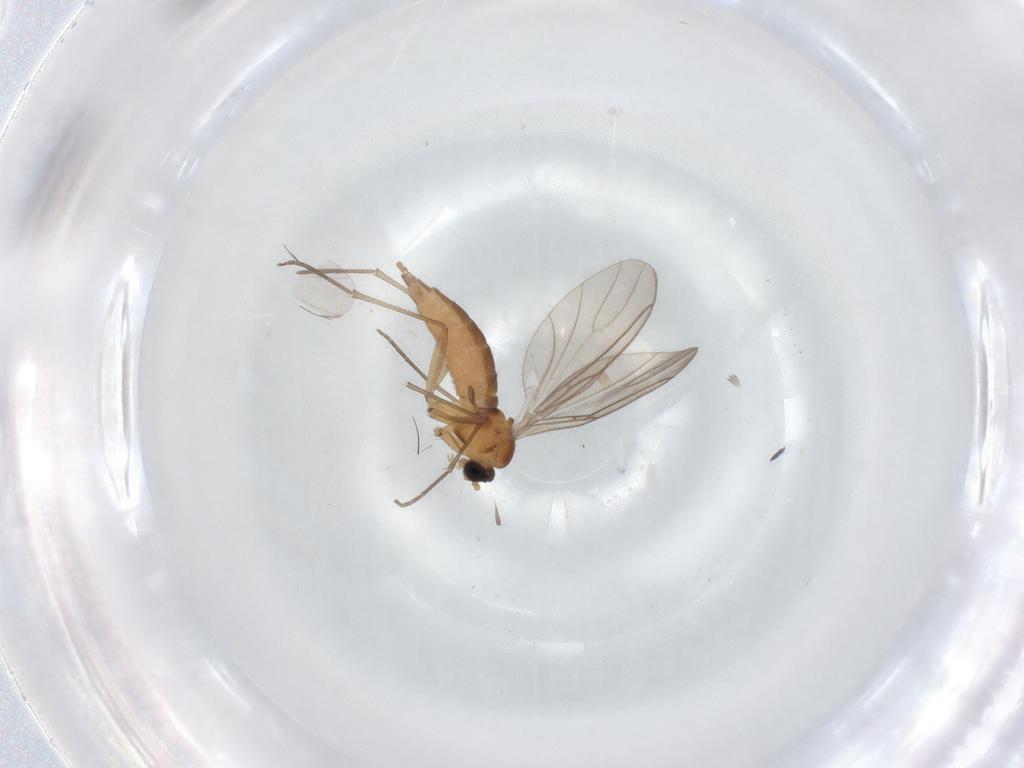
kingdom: Animalia
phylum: Arthropoda
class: Insecta
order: Diptera
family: Sciaridae
